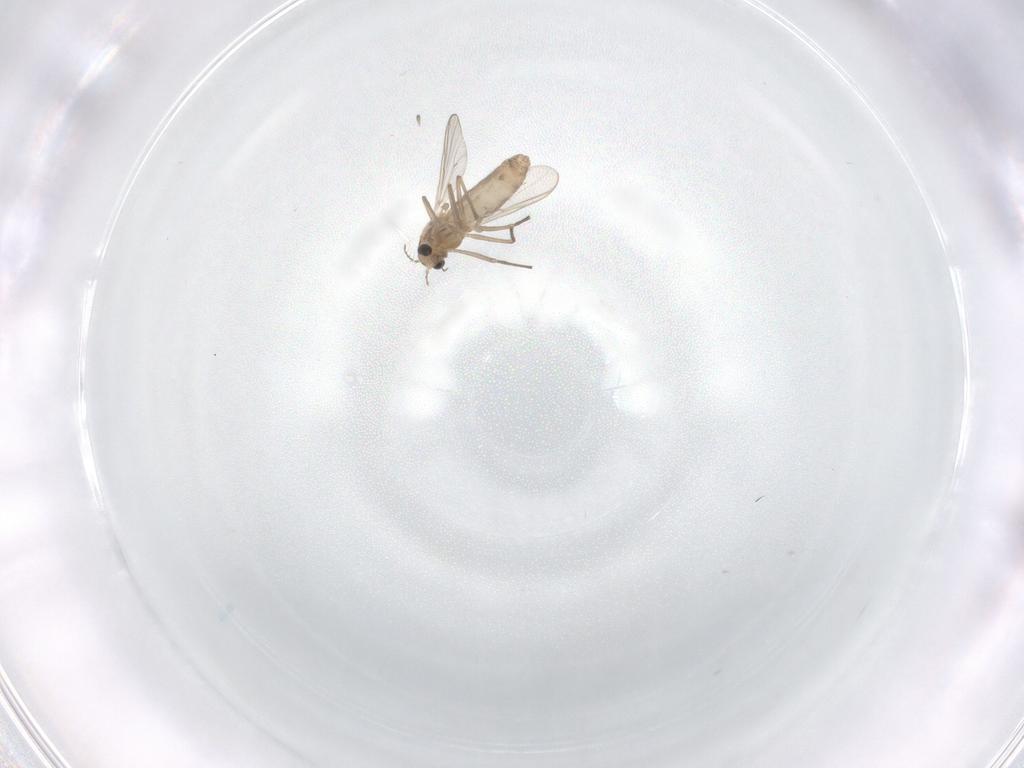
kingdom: Animalia
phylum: Arthropoda
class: Insecta
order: Diptera
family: Chironomidae
